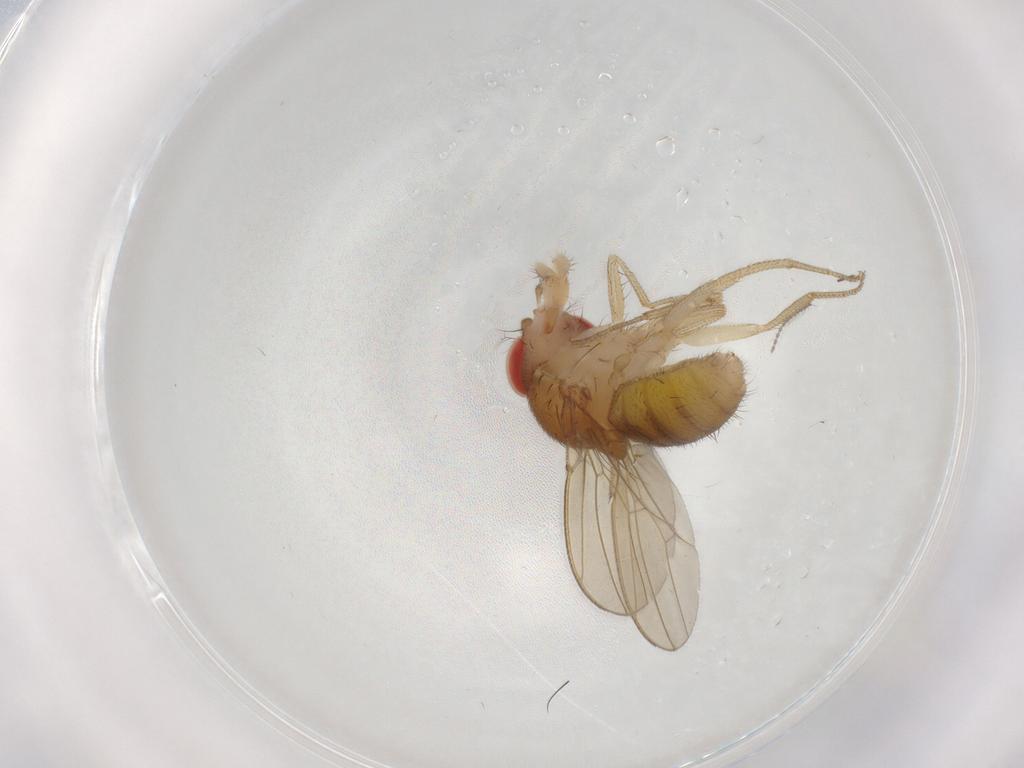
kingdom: Animalia
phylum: Arthropoda
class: Insecta
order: Diptera
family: Drosophilidae
